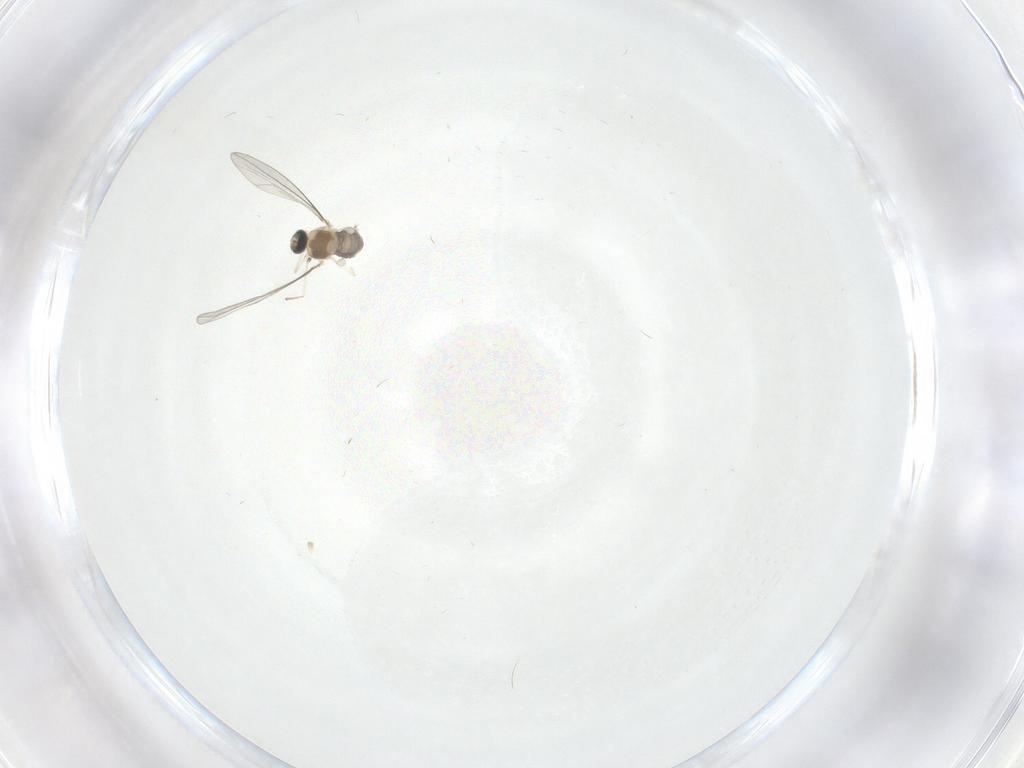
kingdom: Animalia
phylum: Arthropoda
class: Insecta
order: Diptera
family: Cecidomyiidae
